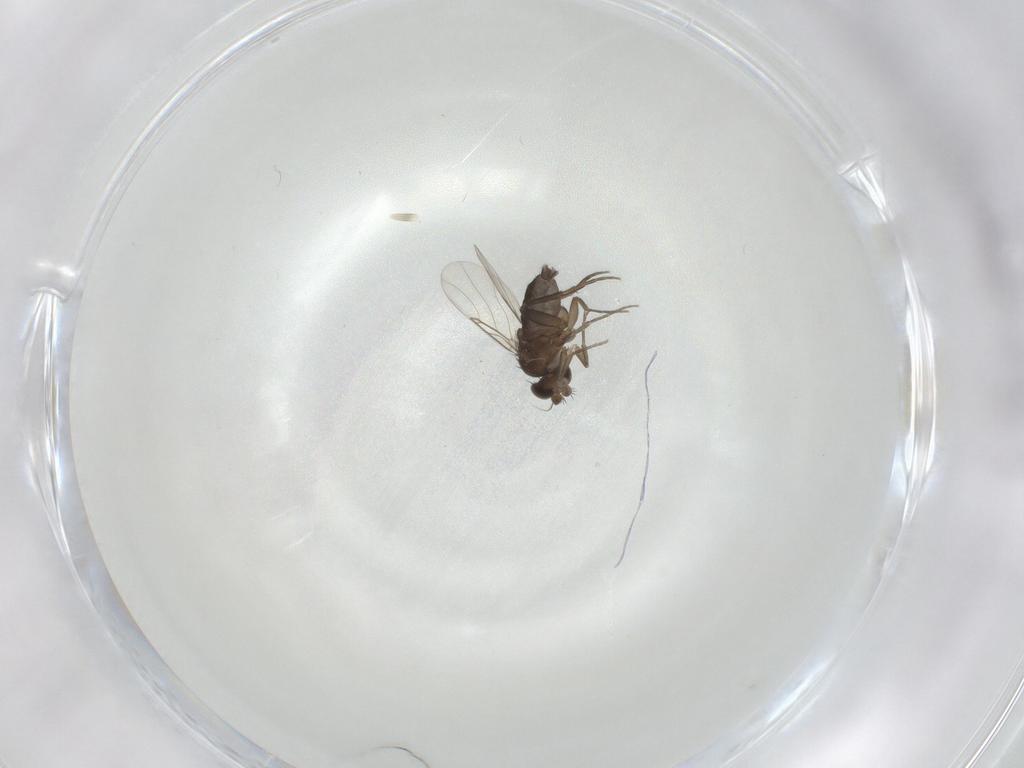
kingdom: Animalia
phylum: Arthropoda
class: Insecta
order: Diptera
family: Phoridae
